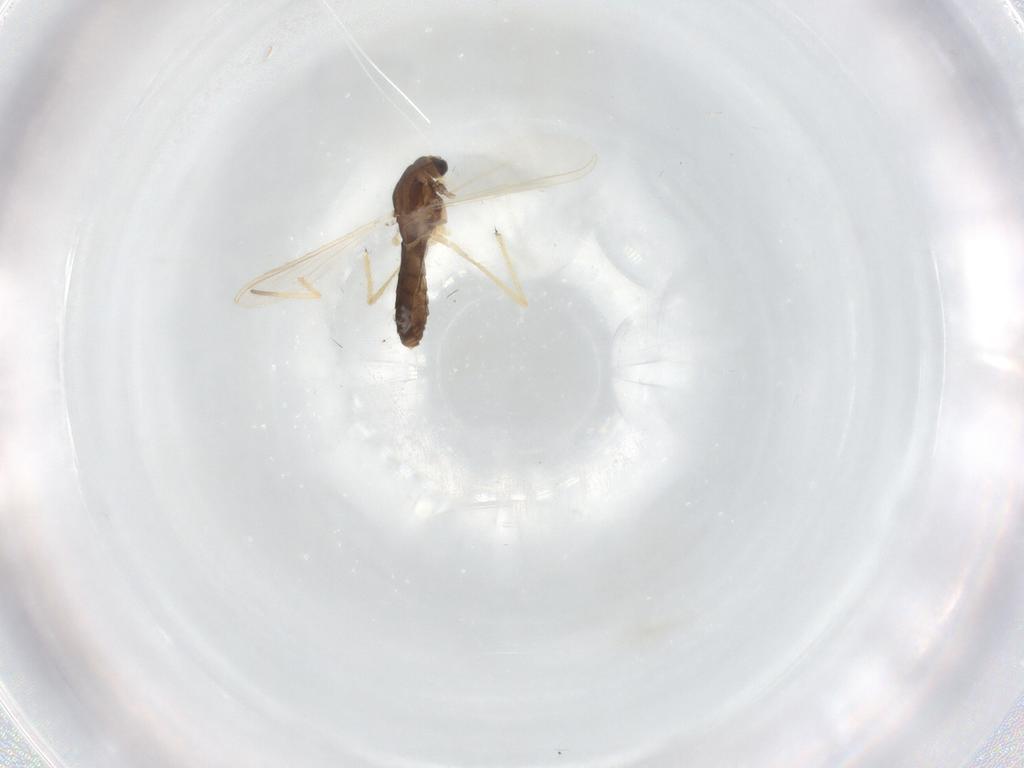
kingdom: Animalia
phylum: Arthropoda
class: Insecta
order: Diptera
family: Chironomidae
